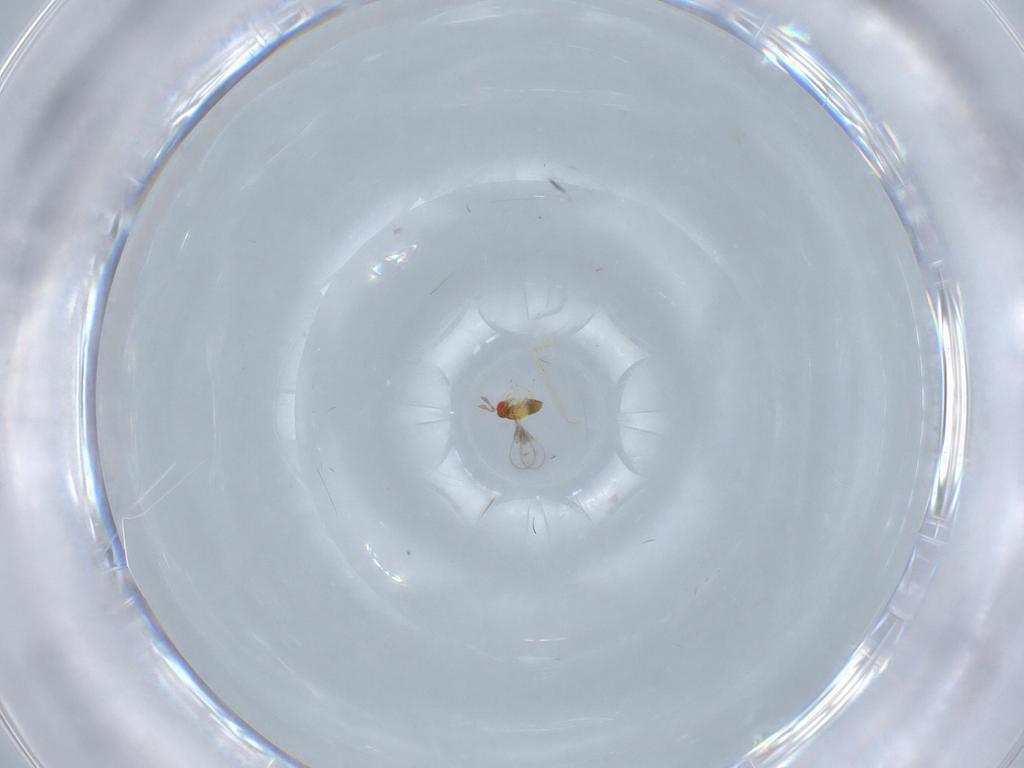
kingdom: Animalia
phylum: Arthropoda
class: Insecta
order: Hymenoptera
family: Trichogrammatidae
